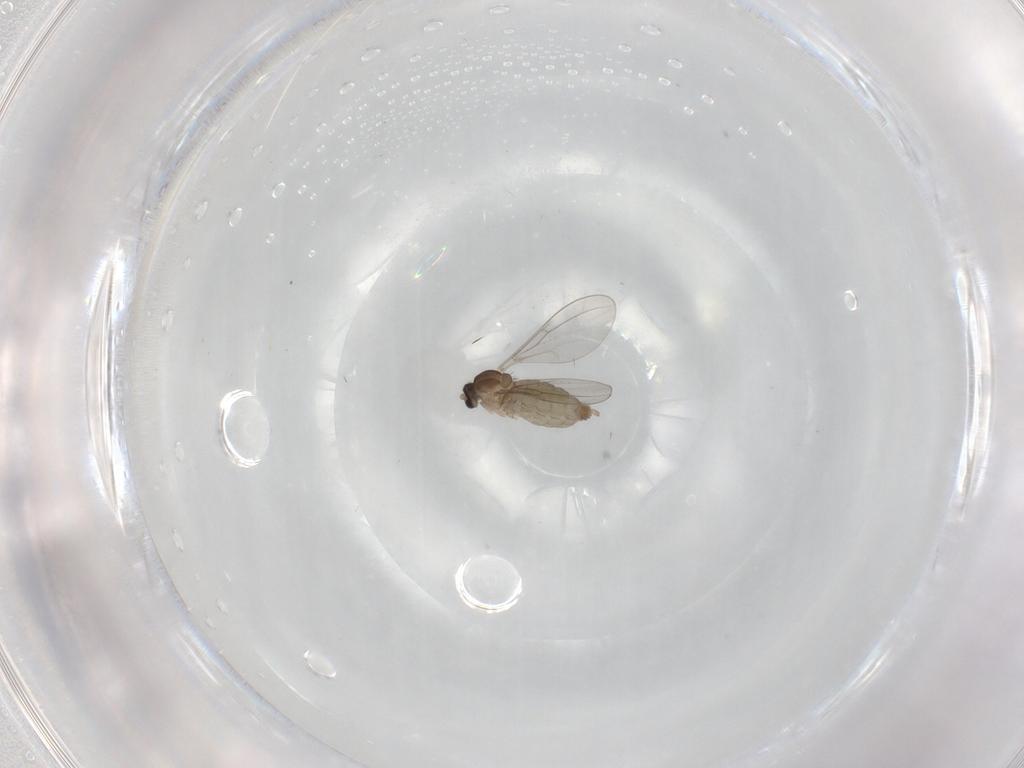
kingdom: Animalia
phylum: Arthropoda
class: Insecta
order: Diptera
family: Cecidomyiidae
